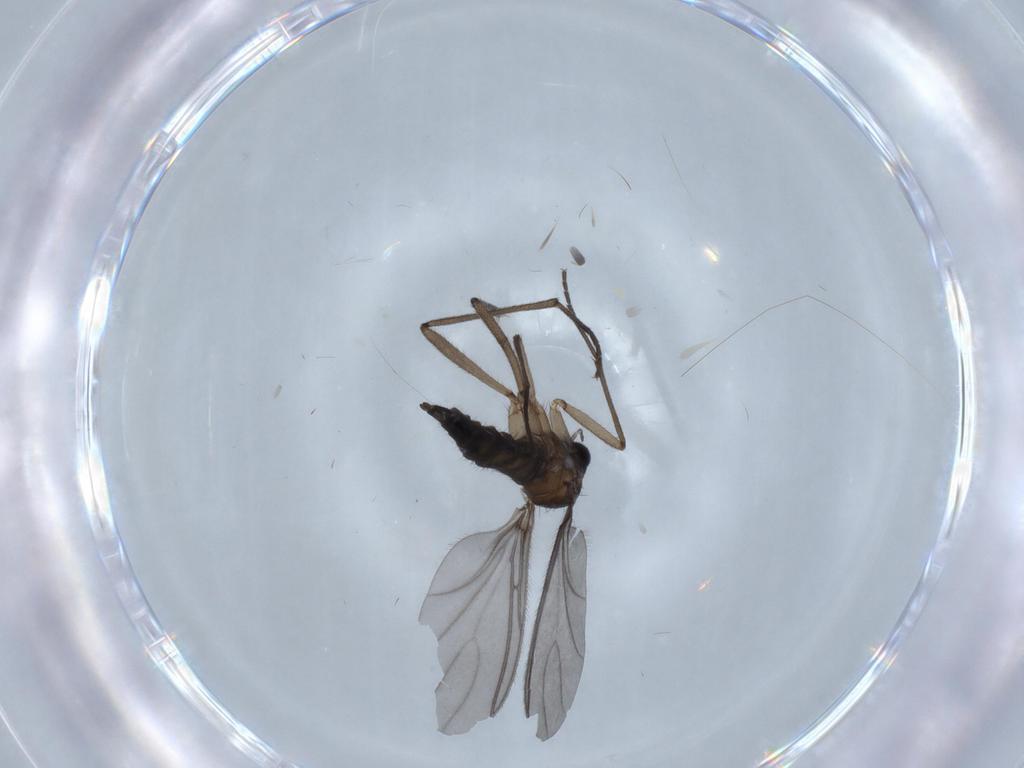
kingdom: Animalia
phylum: Arthropoda
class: Insecta
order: Diptera
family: Sciaridae
